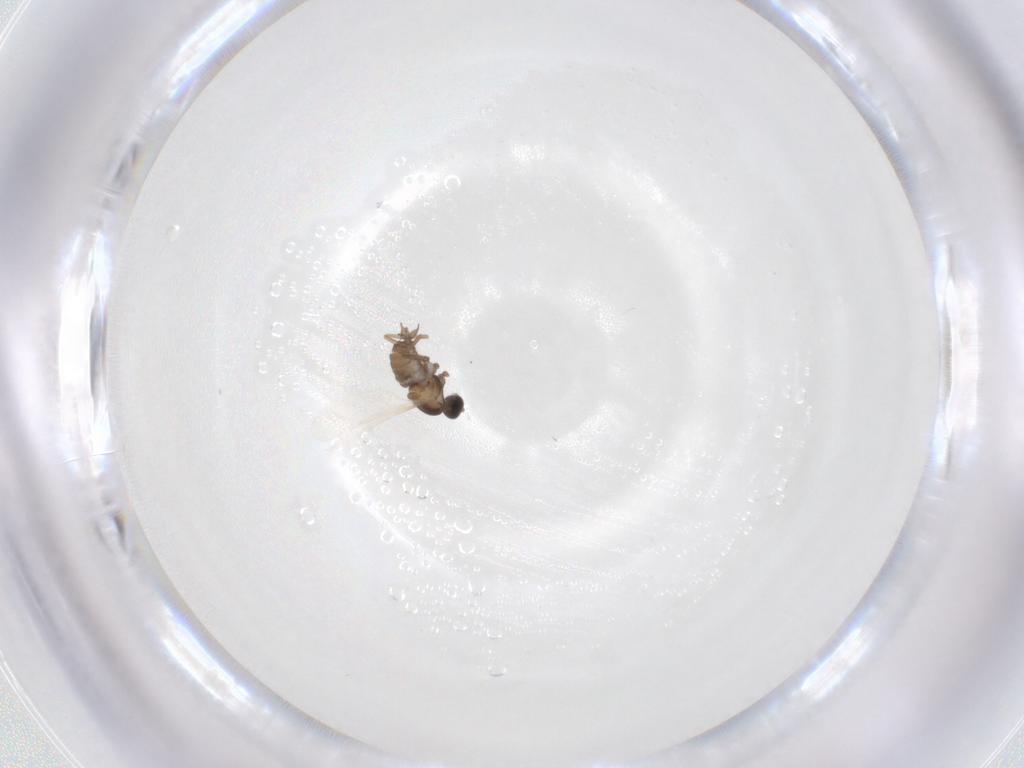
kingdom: Animalia
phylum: Arthropoda
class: Insecta
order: Diptera
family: Cecidomyiidae
